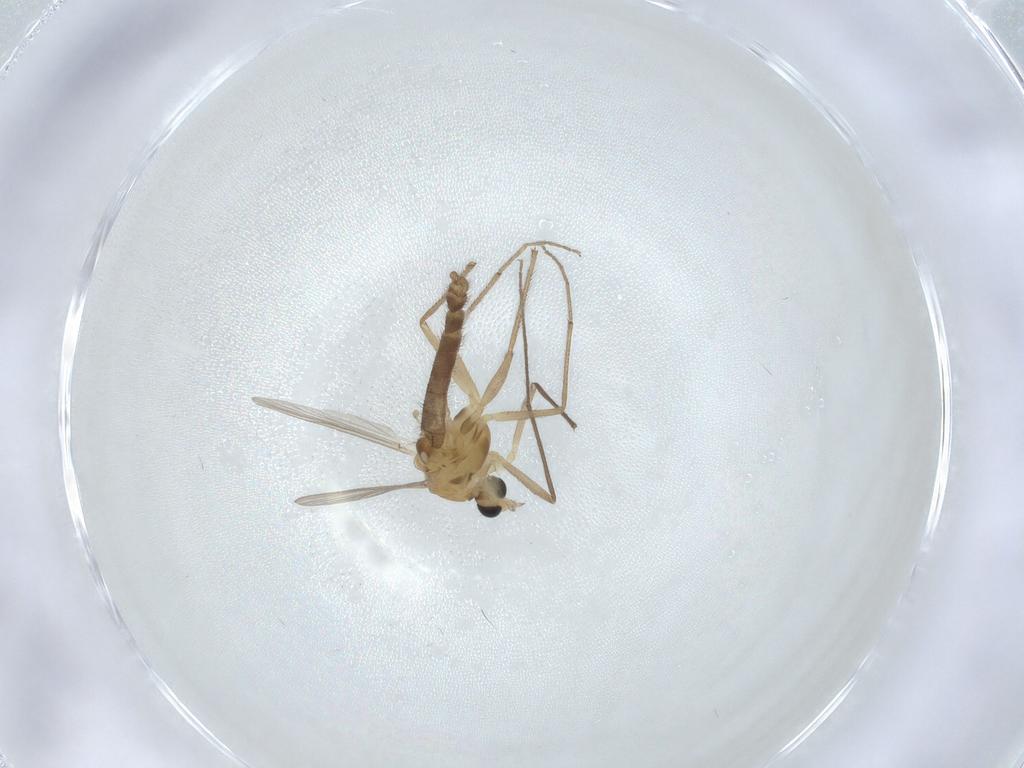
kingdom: Animalia
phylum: Arthropoda
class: Insecta
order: Diptera
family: Chironomidae
